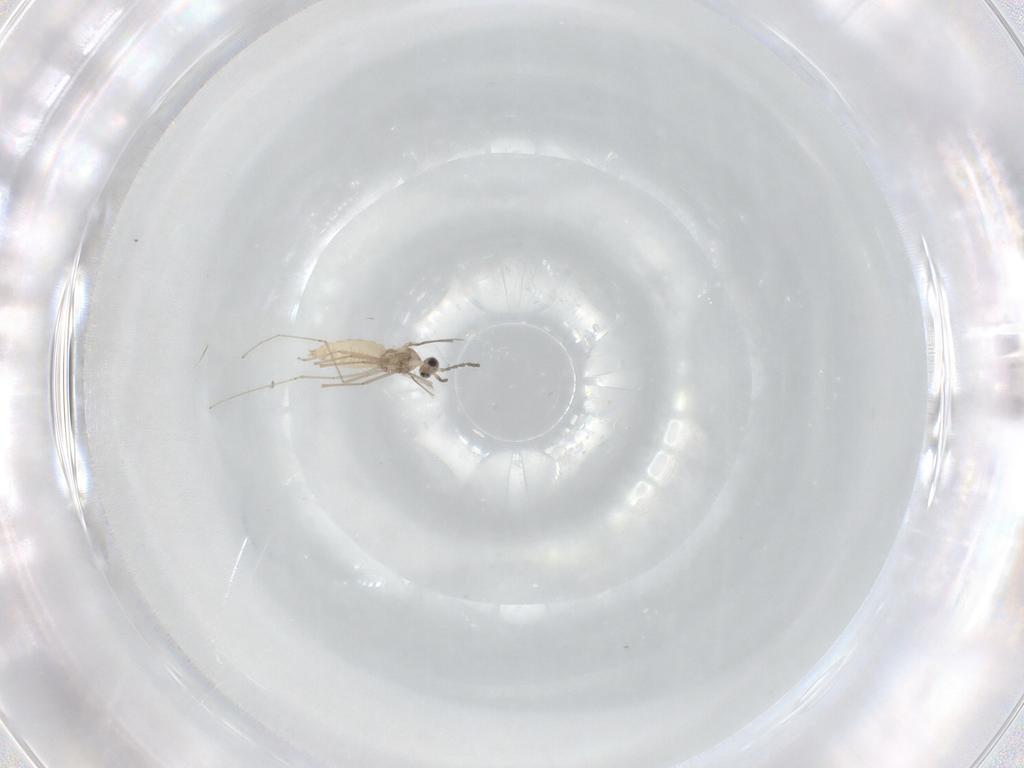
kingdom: Animalia
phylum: Arthropoda
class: Insecta
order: Diptera
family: Cecidomyiidae
